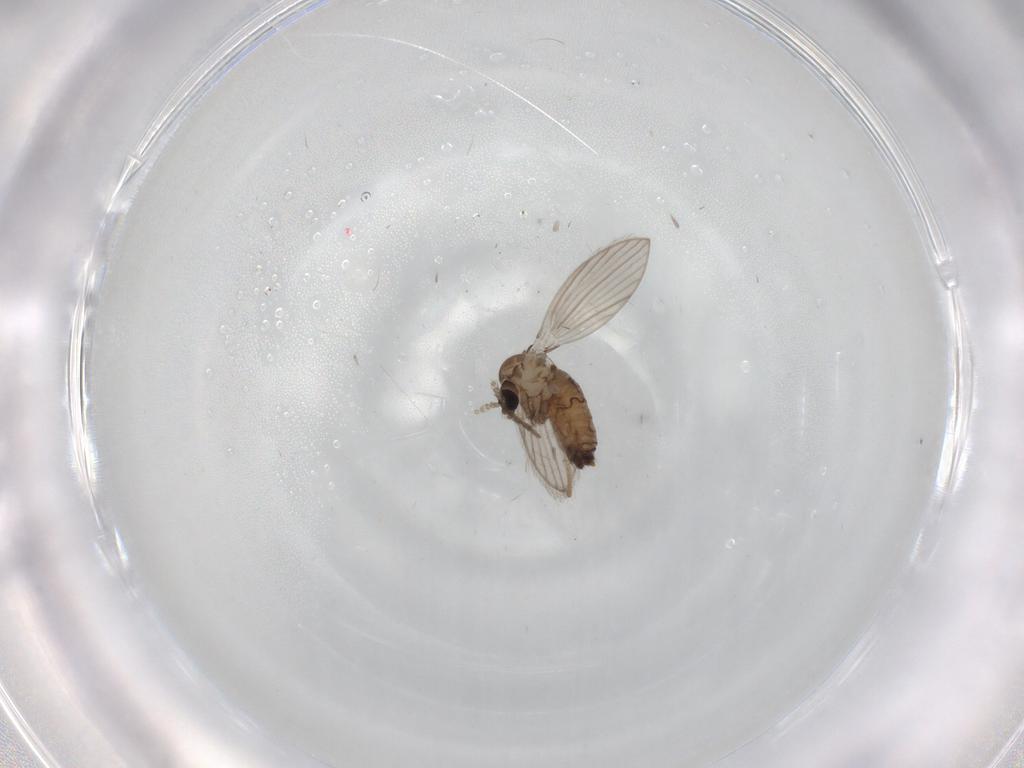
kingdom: Animalia
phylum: Arthropoda
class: Insecta
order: Diptera
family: Psychodidae
